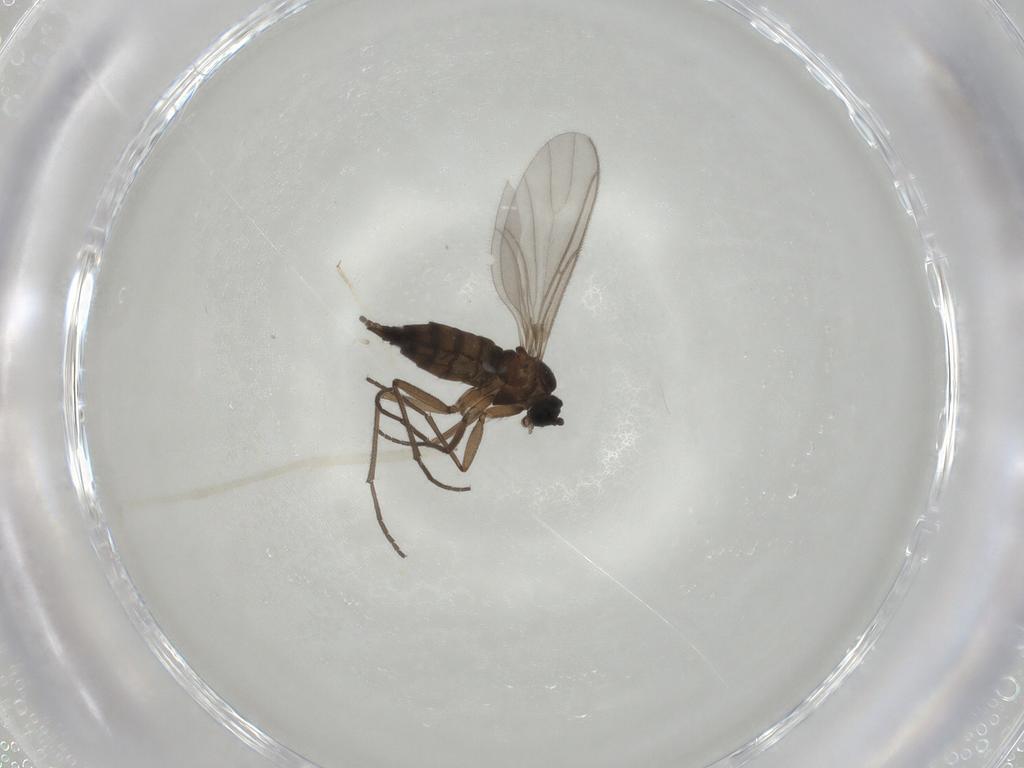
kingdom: Animalia
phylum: Arthropoda
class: Insecta
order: Diptera
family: Sciaridae
